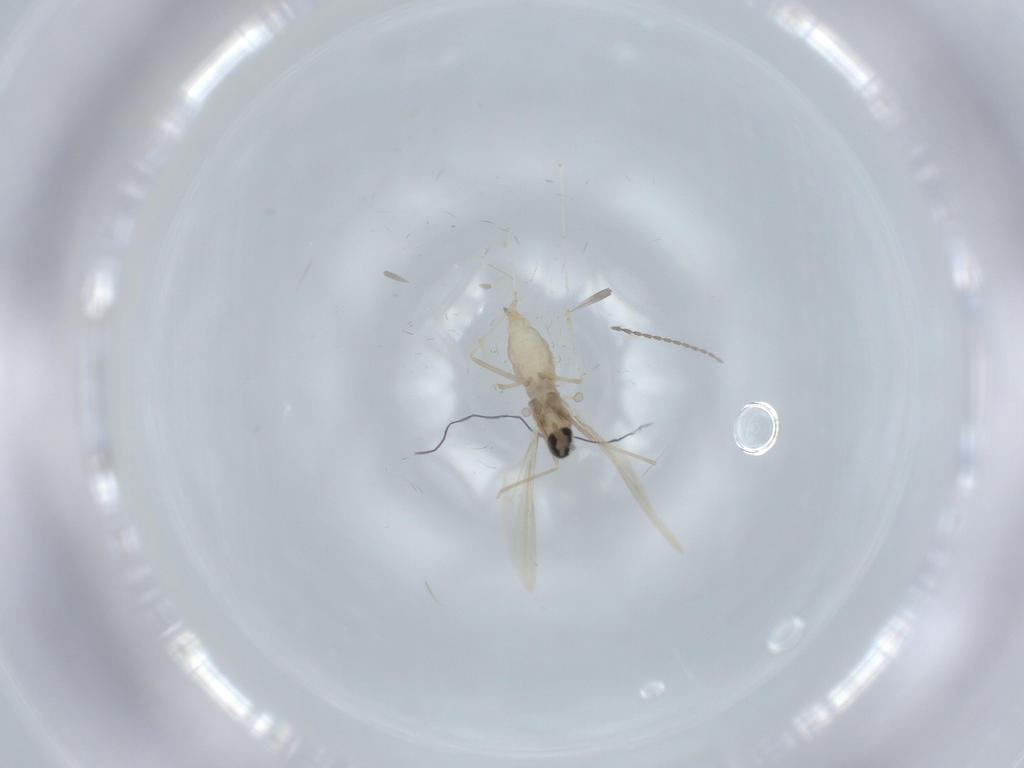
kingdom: Animalia
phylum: Arthropoda
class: Insecta
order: Diptera
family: Cecidomyiidae
